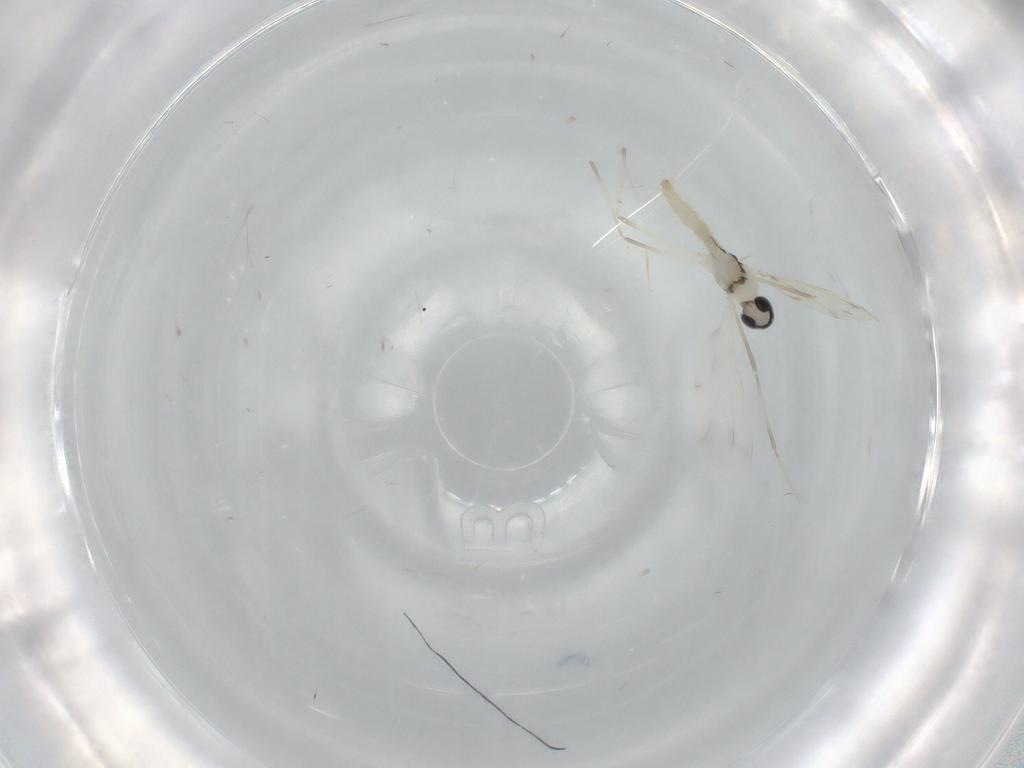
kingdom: Animalia
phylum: Arthropoda
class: Insecta
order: Diptera
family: Cecidomyiidae
